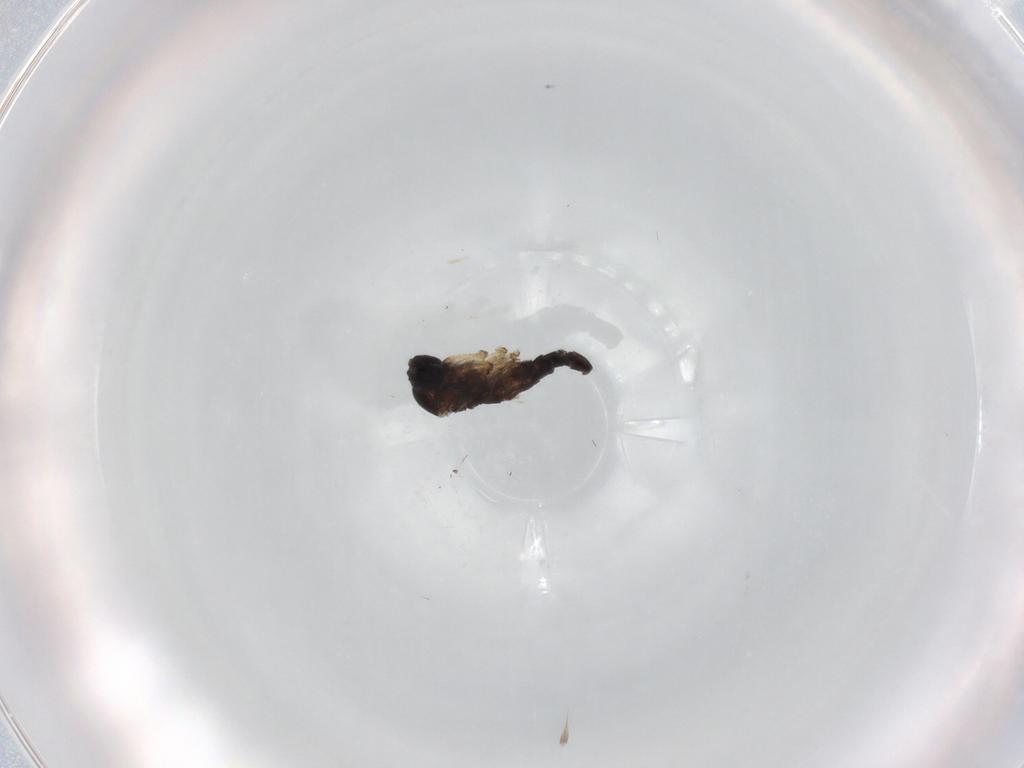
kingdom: Animalia
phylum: Arthropoda
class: Insecta
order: Diptera
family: Sciaridae
